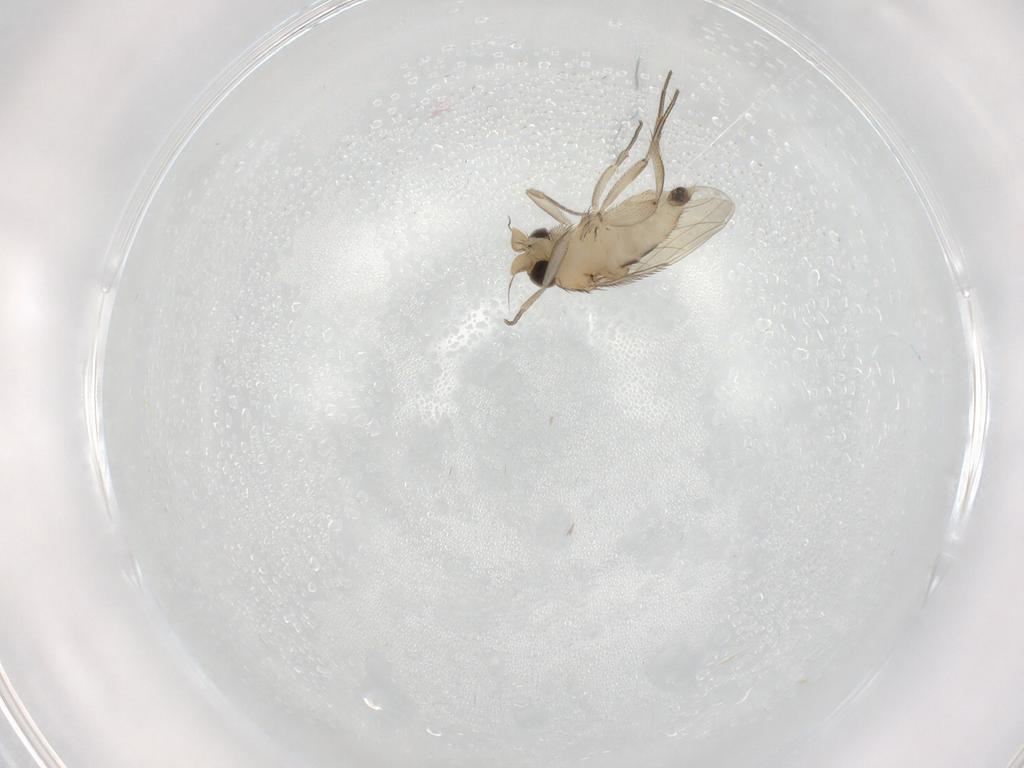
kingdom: Animalia
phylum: Arthropoda
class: Insecta
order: Diptera
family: Phoridae
